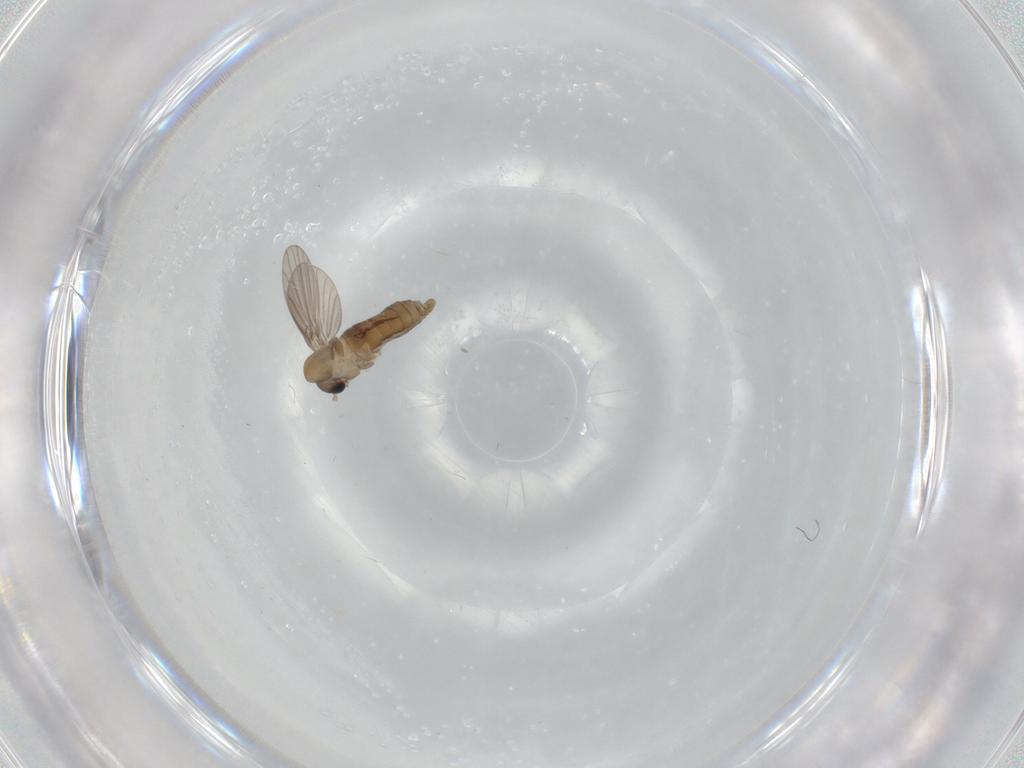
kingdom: Animalia
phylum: Arthropoda
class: Insecta
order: Diptera
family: Psychodidae
